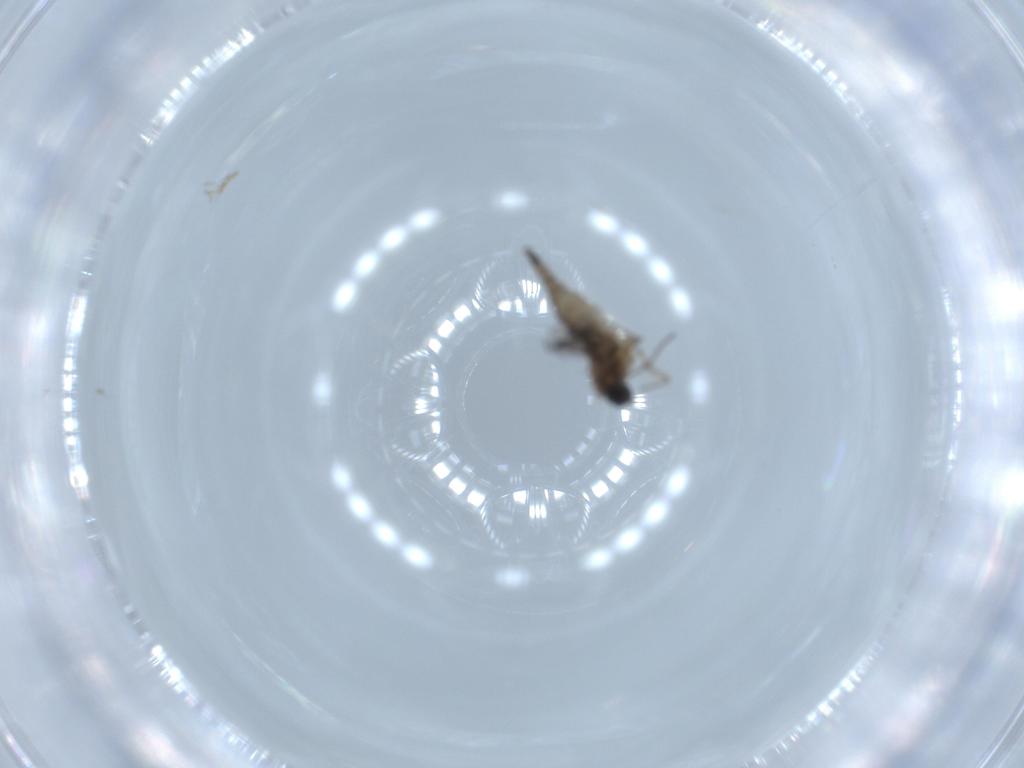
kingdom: Animalia
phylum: Arthropoda
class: Insecta
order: Diptera
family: Sciaridae
